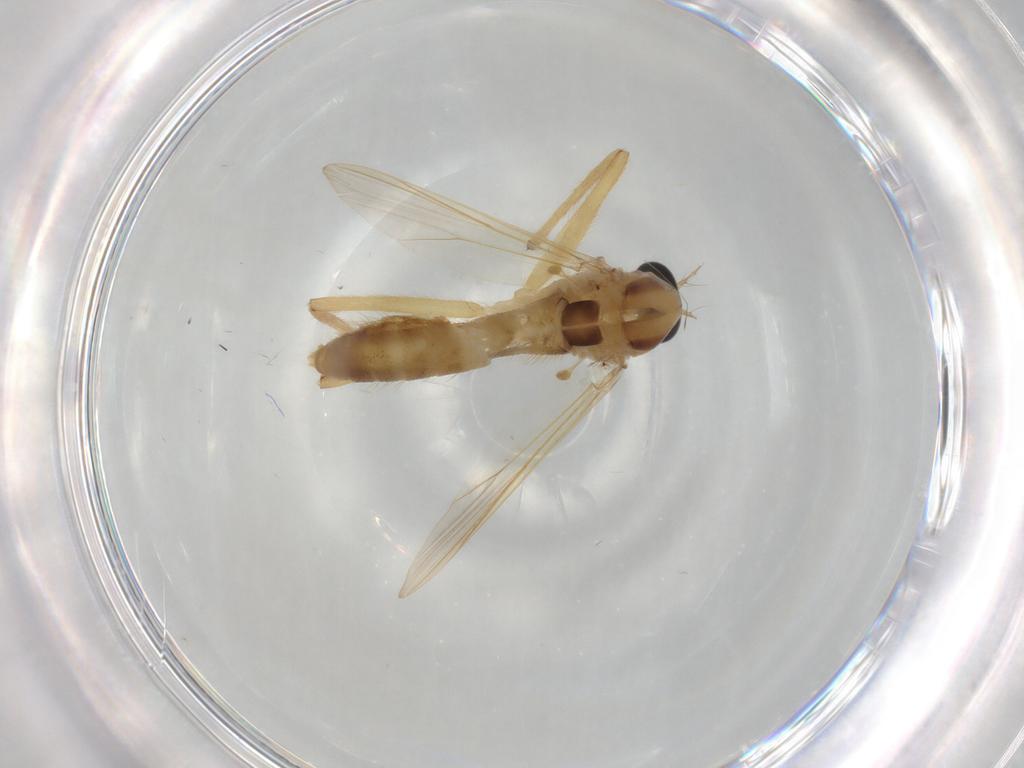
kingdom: Animalia
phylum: Arthropoda
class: Insecta
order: Diptera
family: Chironomidae
